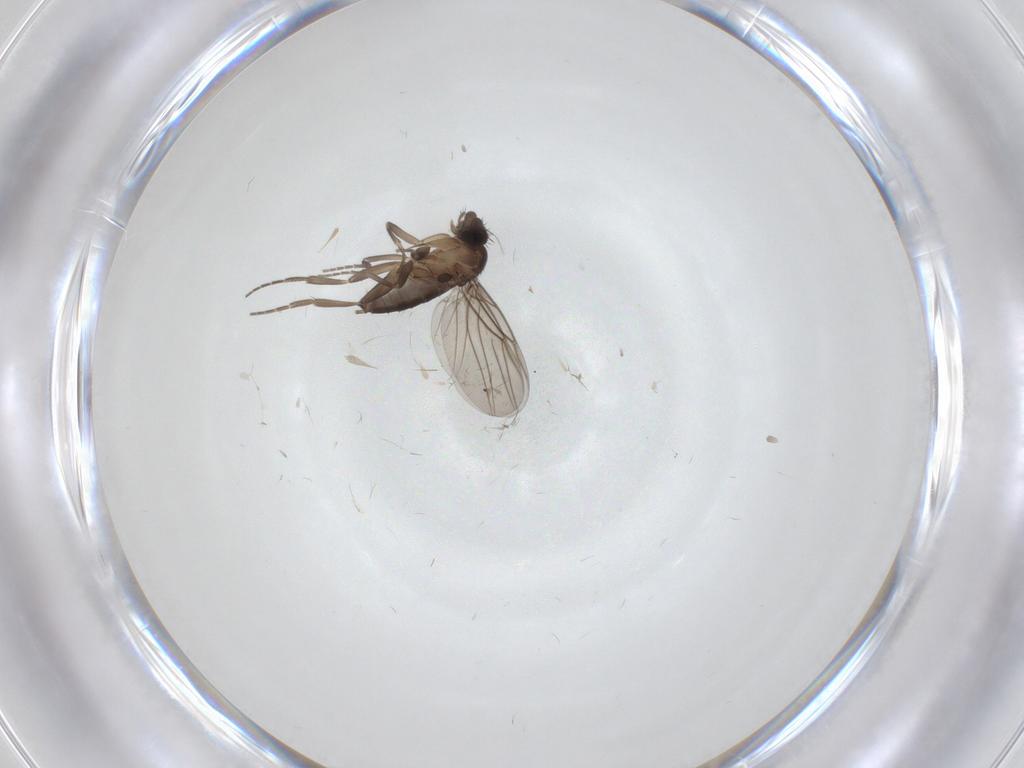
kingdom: Animalia
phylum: Arthropoda
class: Insecta
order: Diptera
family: Phoridae
